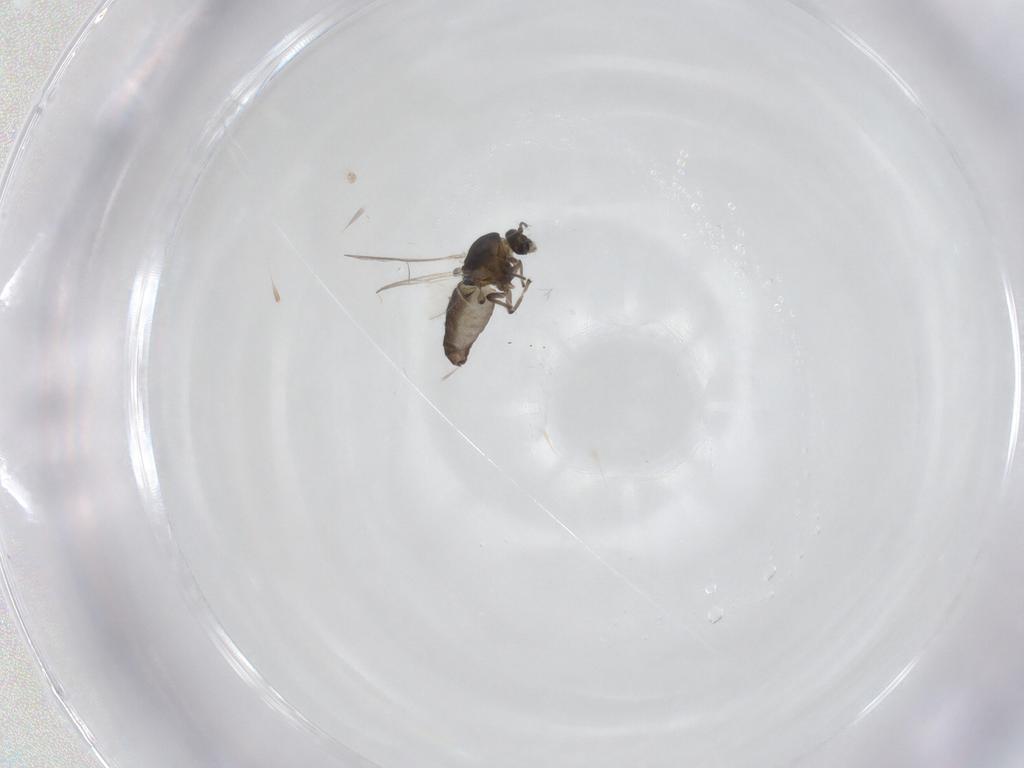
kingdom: Animalia
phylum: Arthropoda
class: Insecta
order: Diptera
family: Chironomidae
